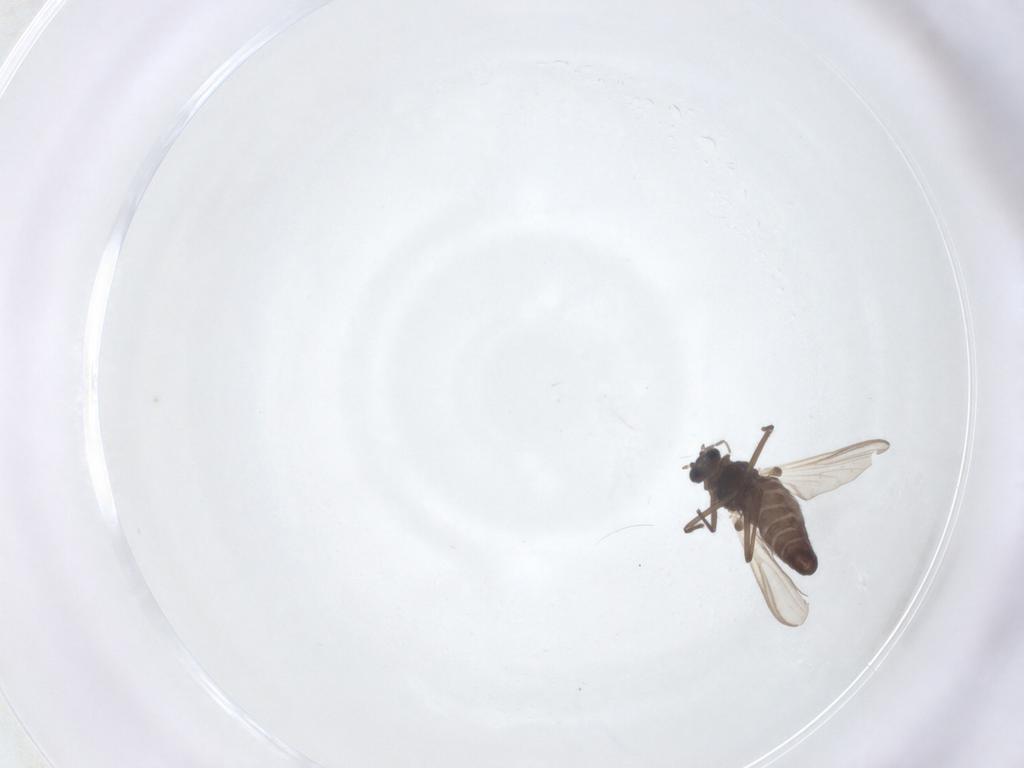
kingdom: Animalia
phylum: Arthropoda
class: Insecta
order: Diptera
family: Chironomidae
